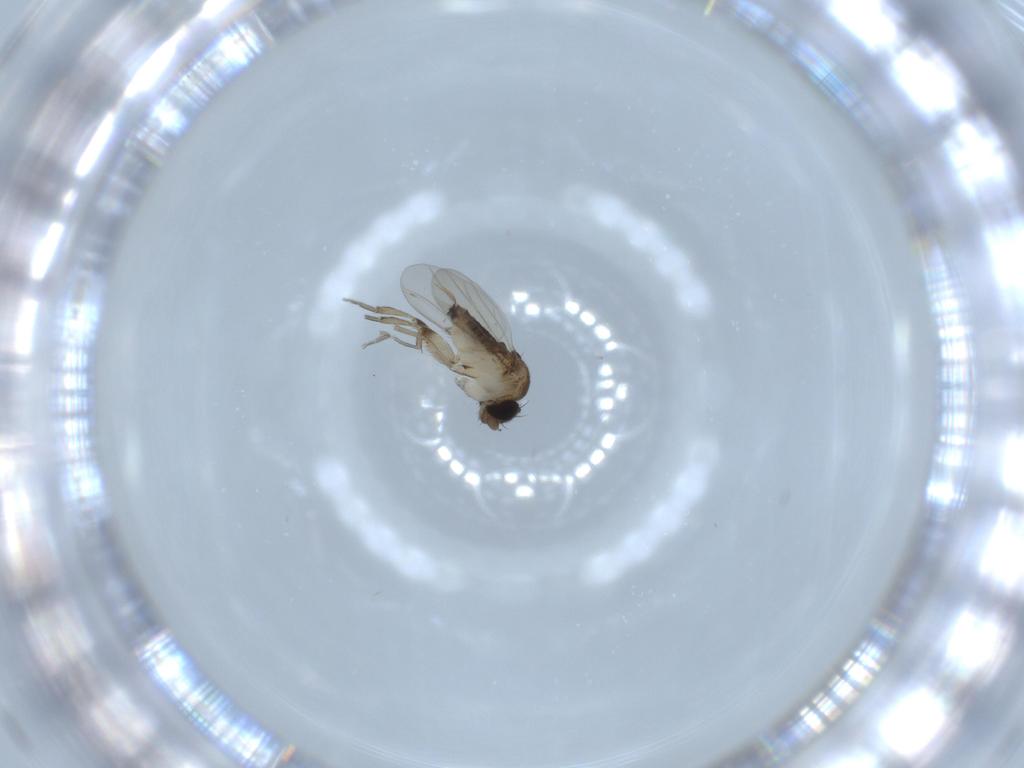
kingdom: Animalia
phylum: Arthropoda
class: Insecta
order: Diptera
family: Phoridae
